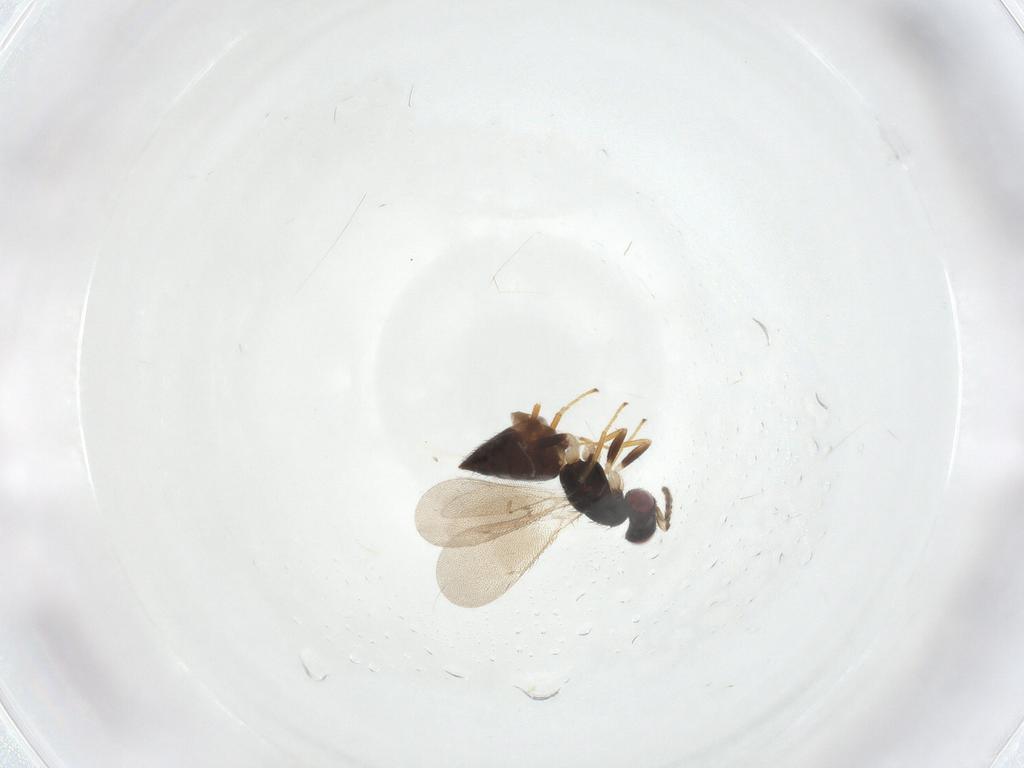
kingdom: Animalia
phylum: Arthropoda
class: Insecta
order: Hymenoptera
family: Eulophidae
